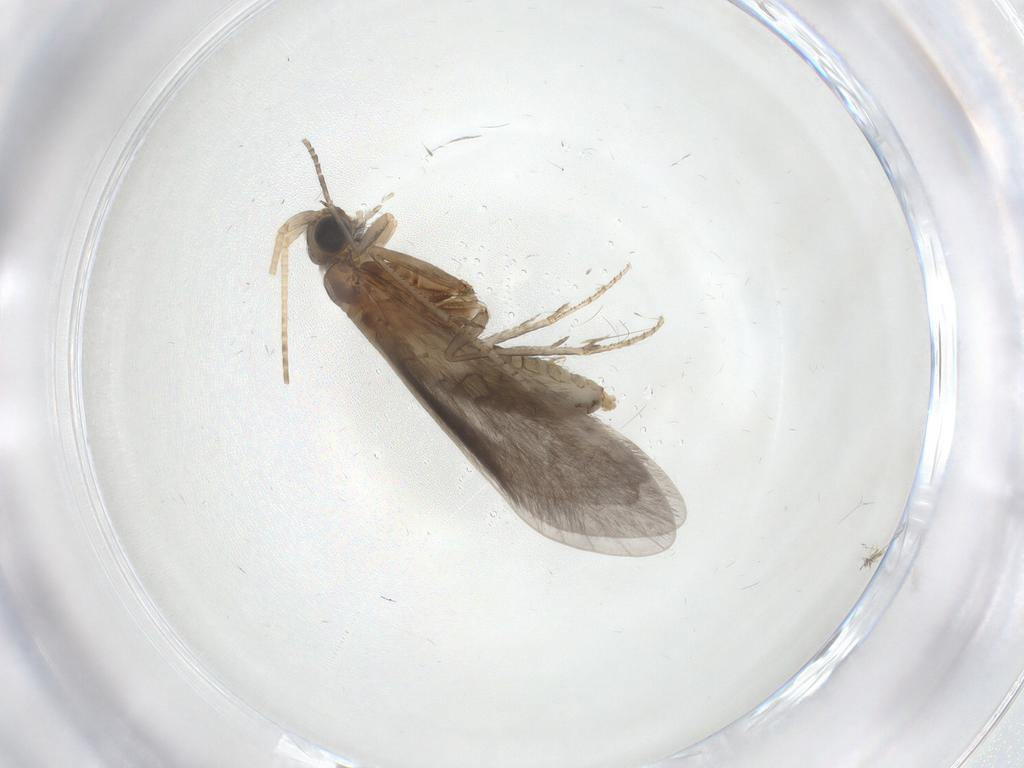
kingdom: Animalia
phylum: Arthropoda
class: Insecta
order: Trichoptera
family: Helicopsychidae
